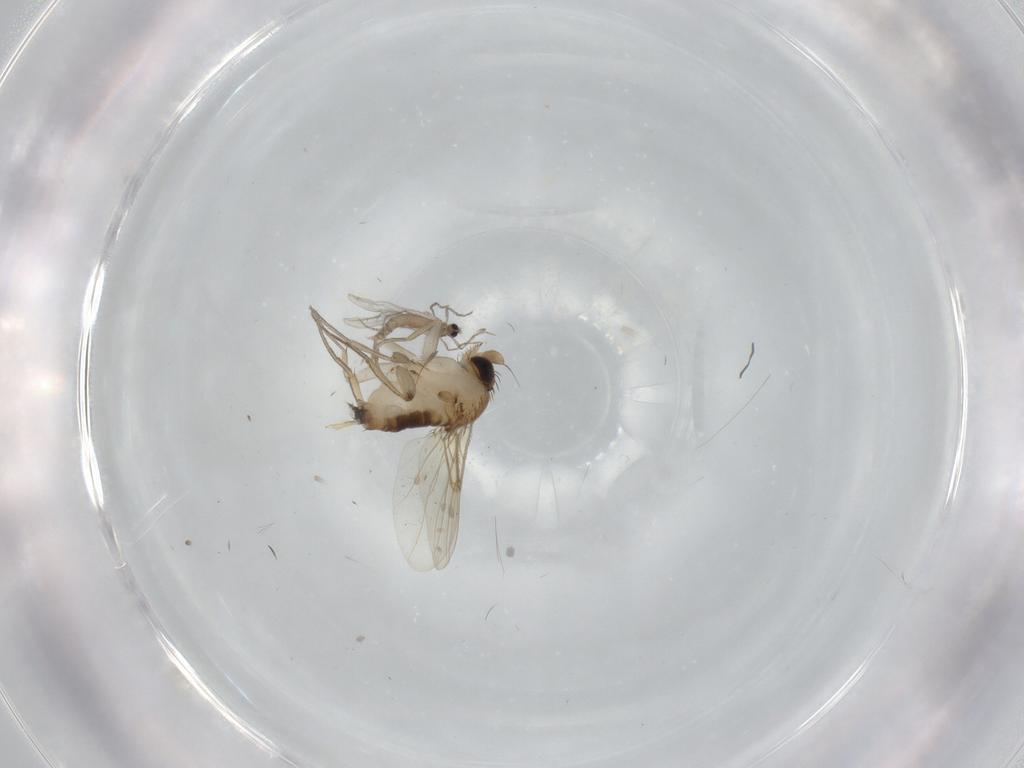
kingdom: Animalia
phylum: Arthropoda
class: Insecta
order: Diptera
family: Phoridae
